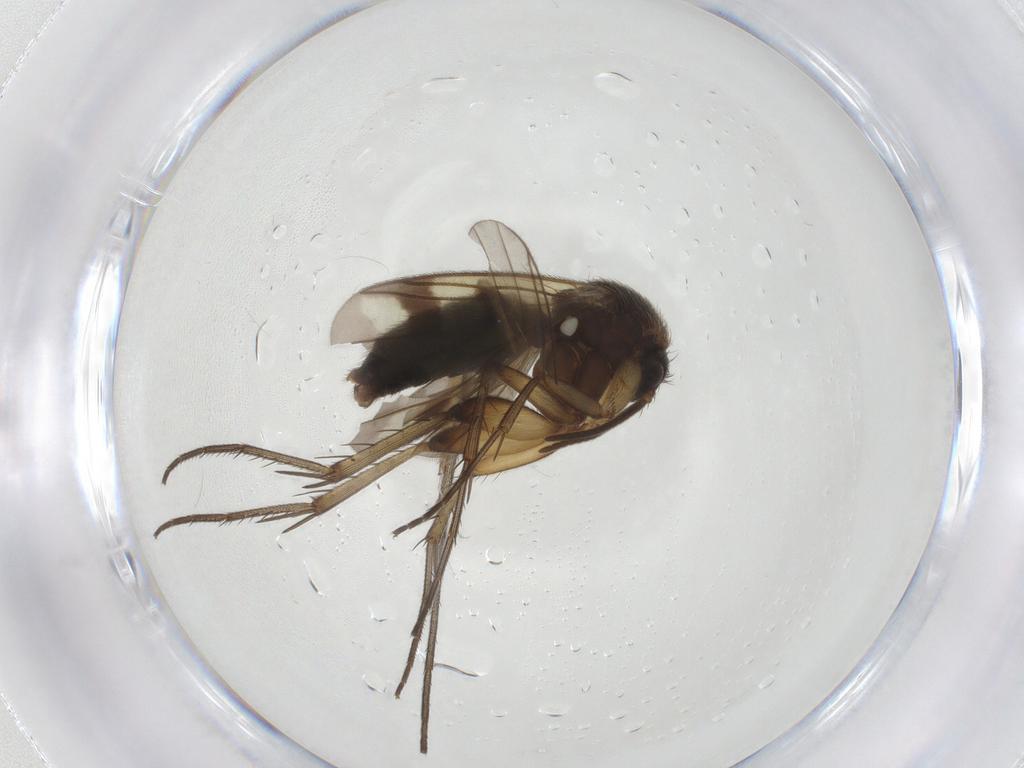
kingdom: Animalia
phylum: Arthropoda
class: Insecta
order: Diptera
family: Mycetophilidae
